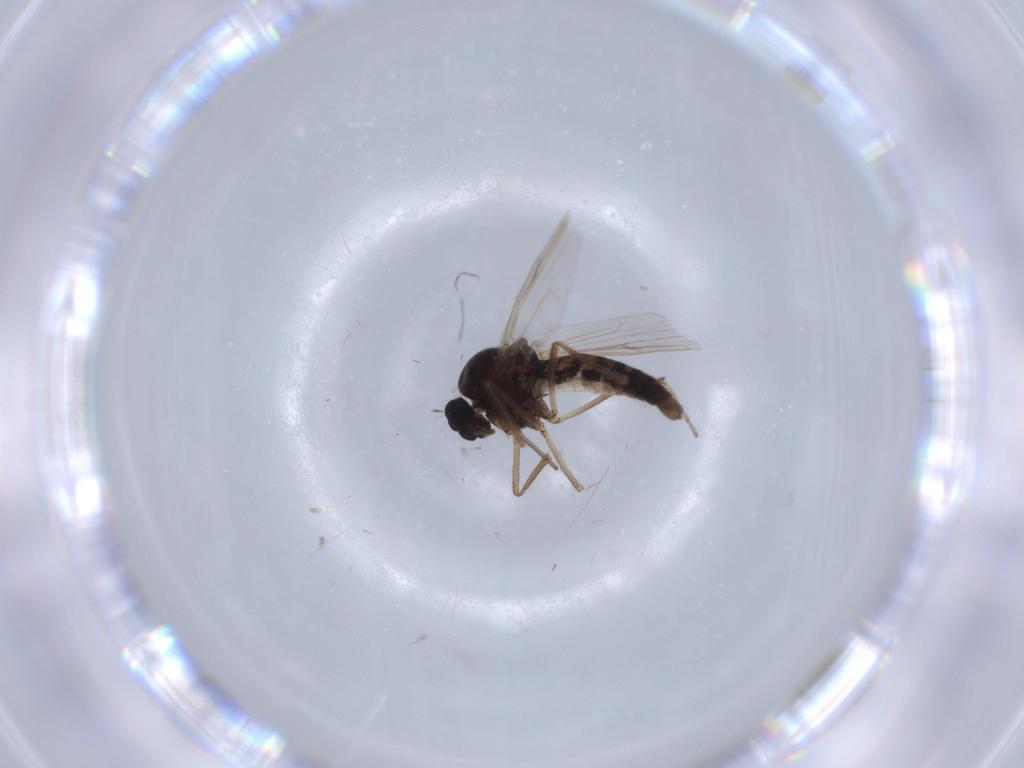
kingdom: Animalia
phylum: Arthropoda
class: Insecta
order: Diptera
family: Ceratopogonidae
